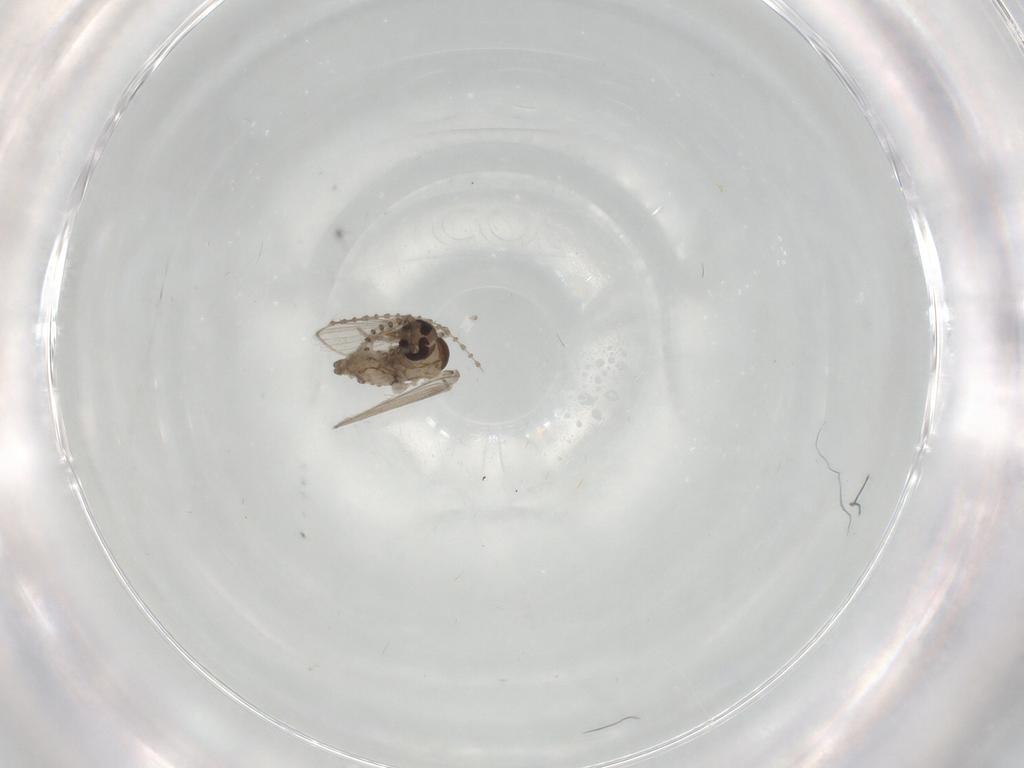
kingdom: Animalia
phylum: Arthropoda
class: Insecta
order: Diptera
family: Psychodidae
